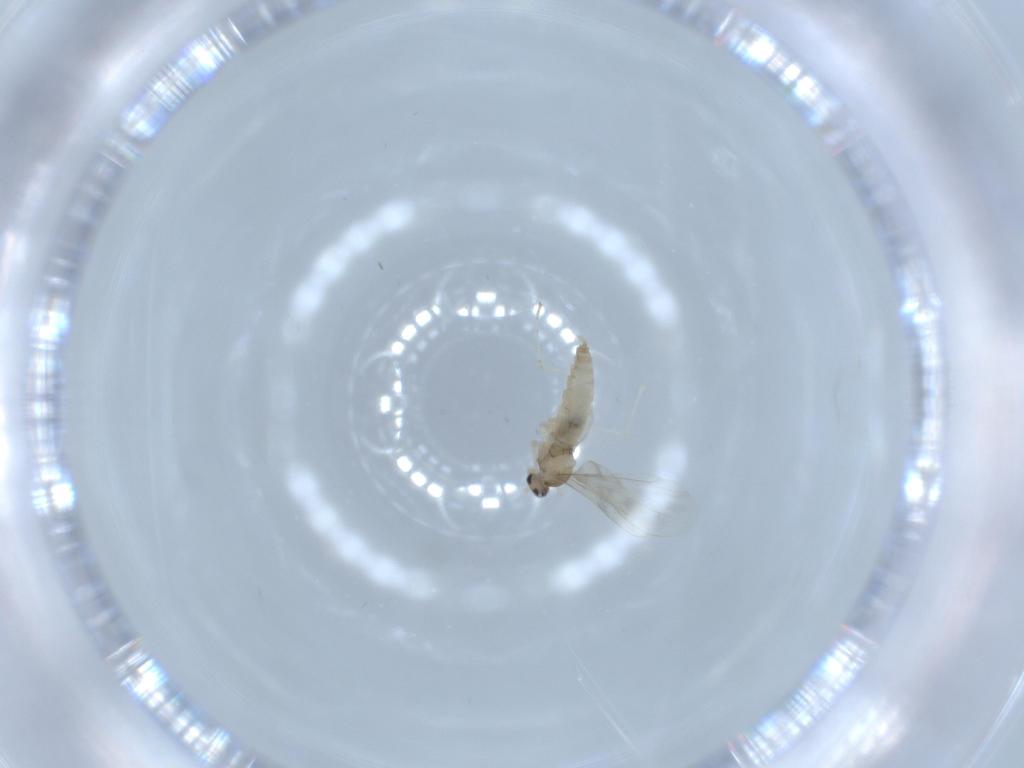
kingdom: Animalia
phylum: Arthropoda
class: Insecta
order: Diptera
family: Cecidomyiidae
